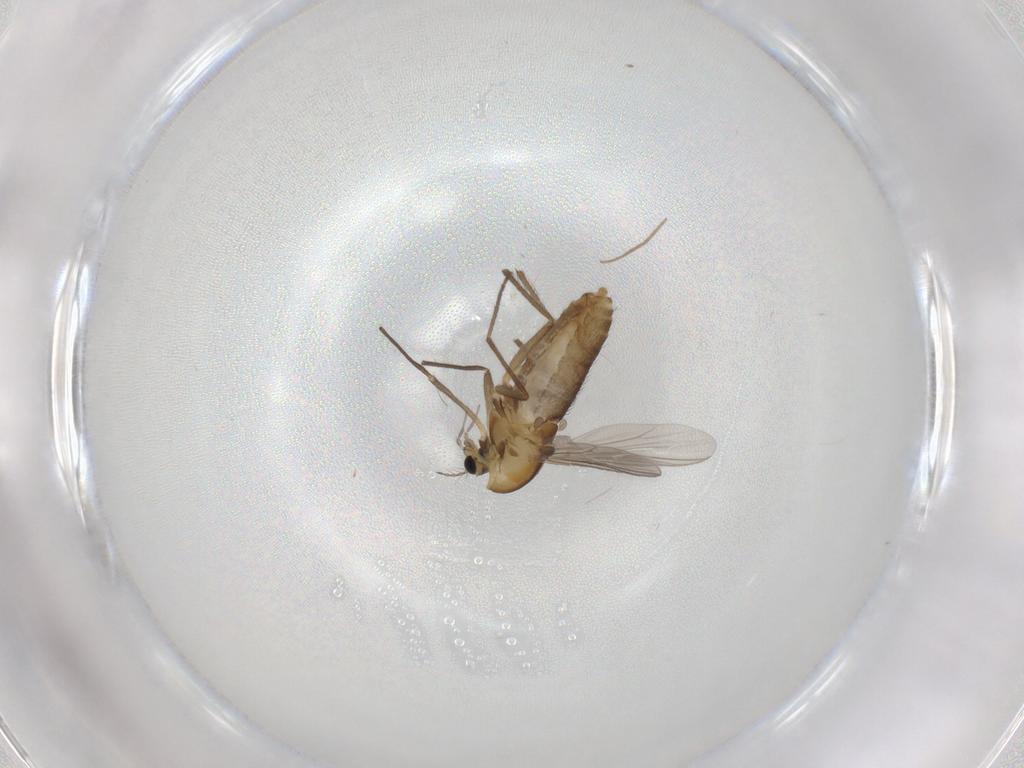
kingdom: Animalia
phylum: Arthropoda
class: Insecta
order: Diptera
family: Chironomidae
